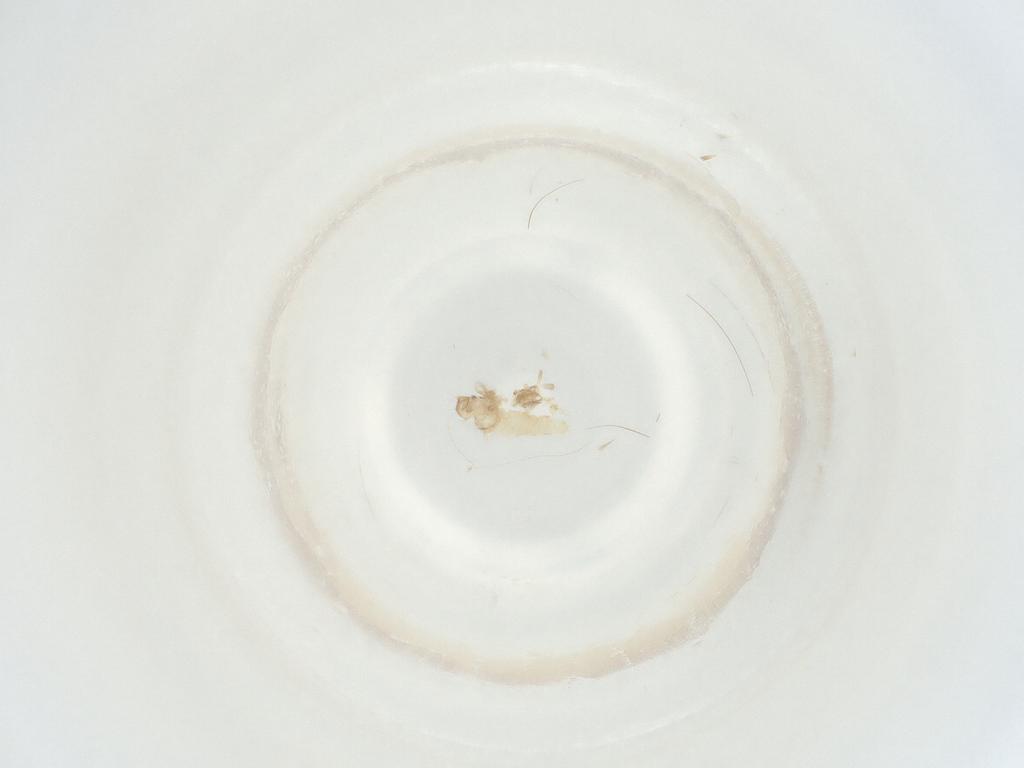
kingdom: Animalia
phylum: Arthropoda
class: Insecta
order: Diptera
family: Cecidomyiidae
